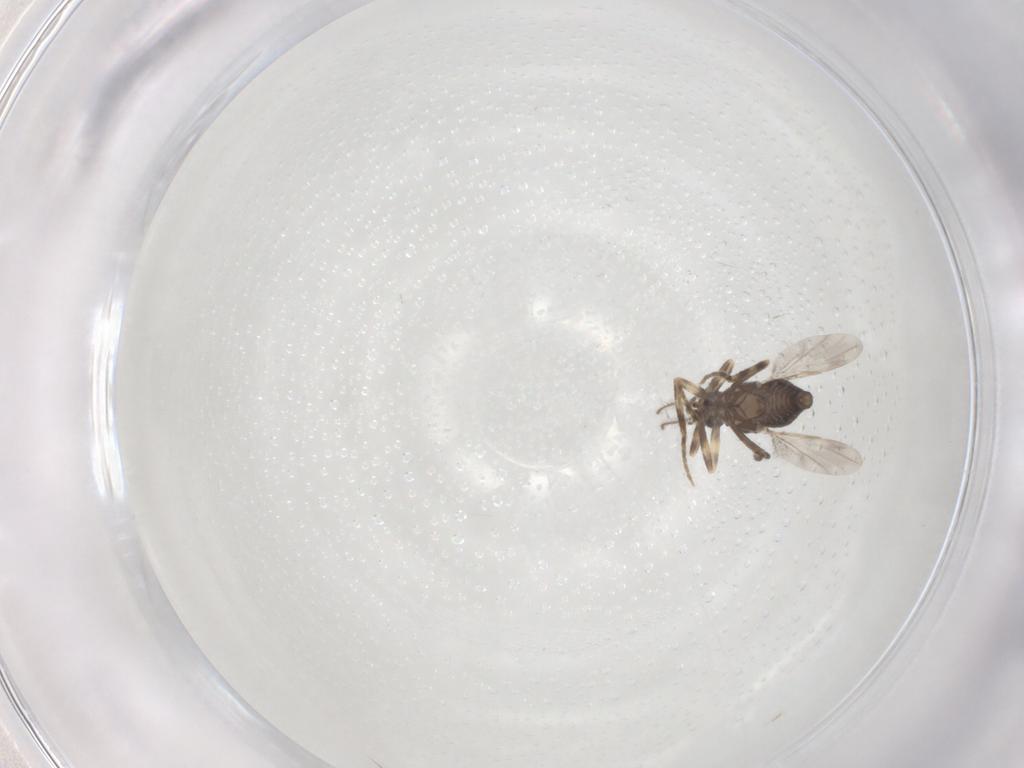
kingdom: Animalia
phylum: Arthropoda
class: Insecta
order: Diptera
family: Ceratopogonidae
